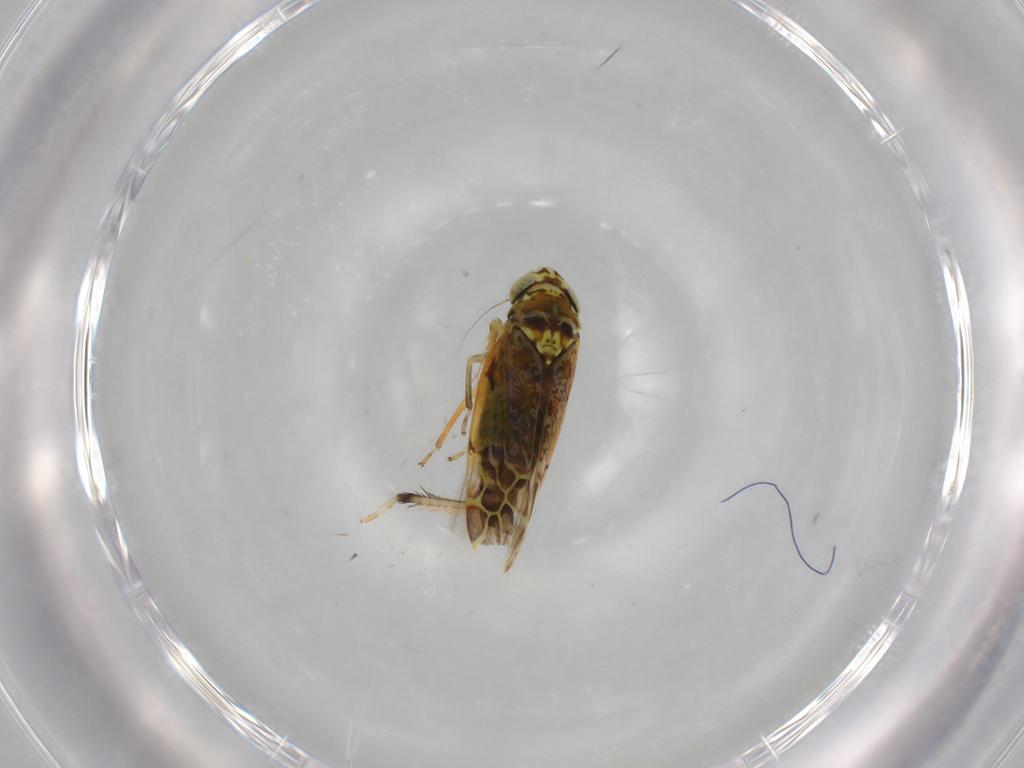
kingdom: Animalia
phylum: Arthropoda
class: Insecta
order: Hemiptera
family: Cicadellidae
